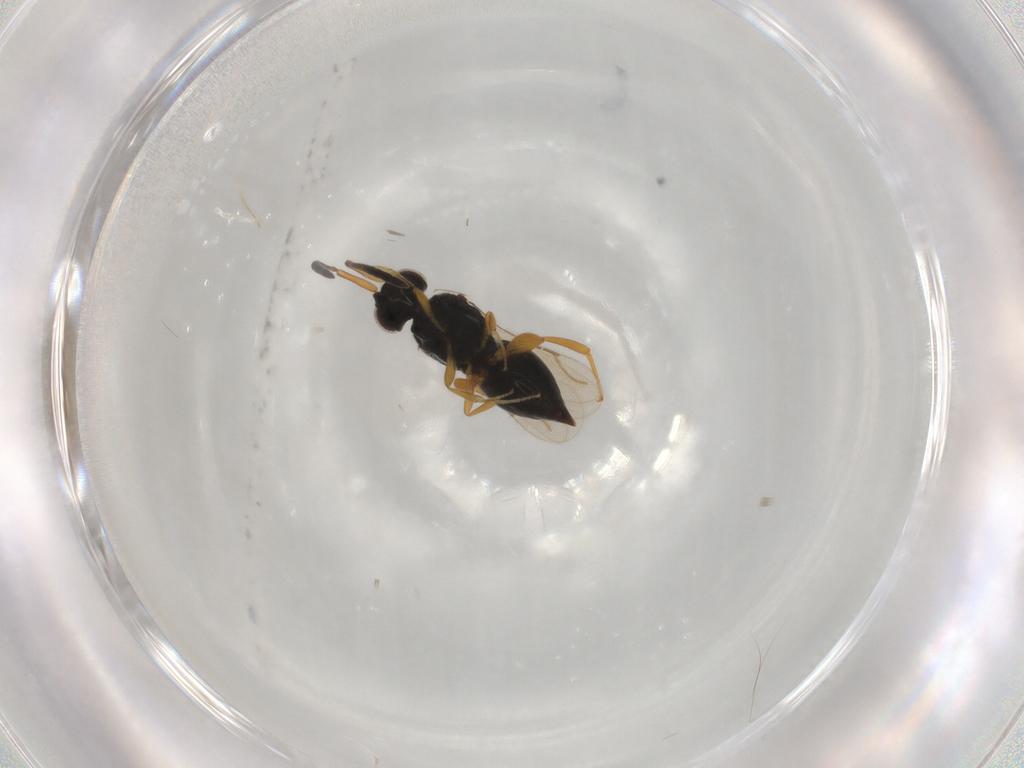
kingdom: Animalia
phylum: Arthropoda
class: Insecta
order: Hymenoptera
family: Ceraphronidae
